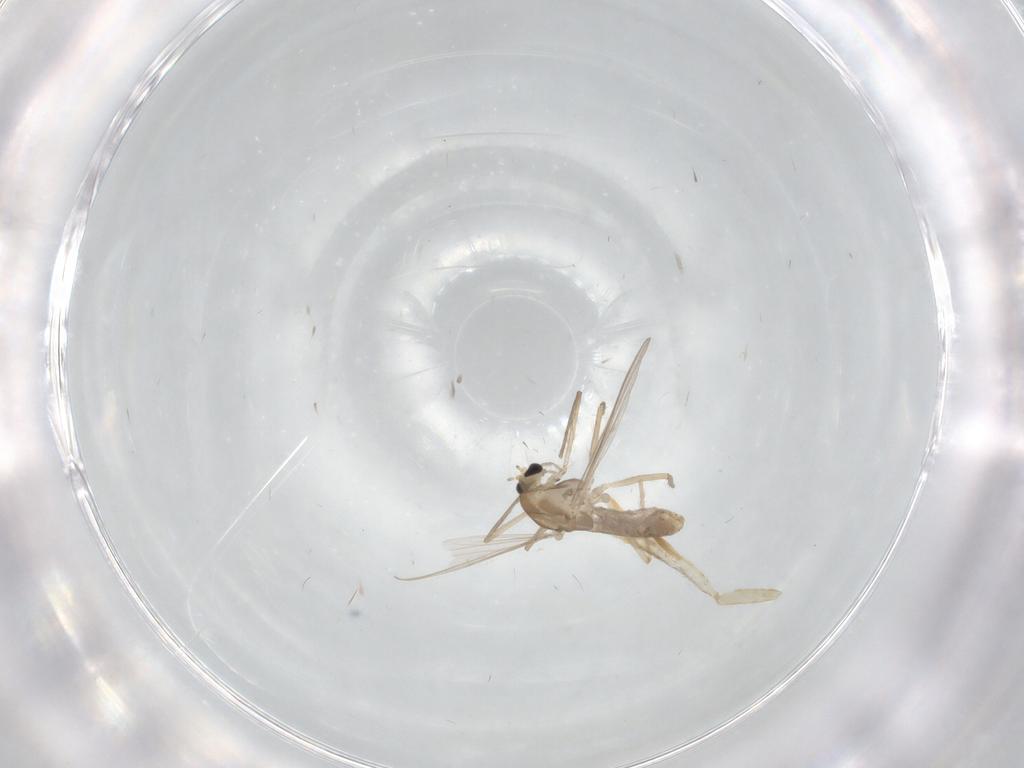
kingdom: Animalia
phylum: Arthropoda
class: Insecta
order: Diptera
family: Chironomidae
